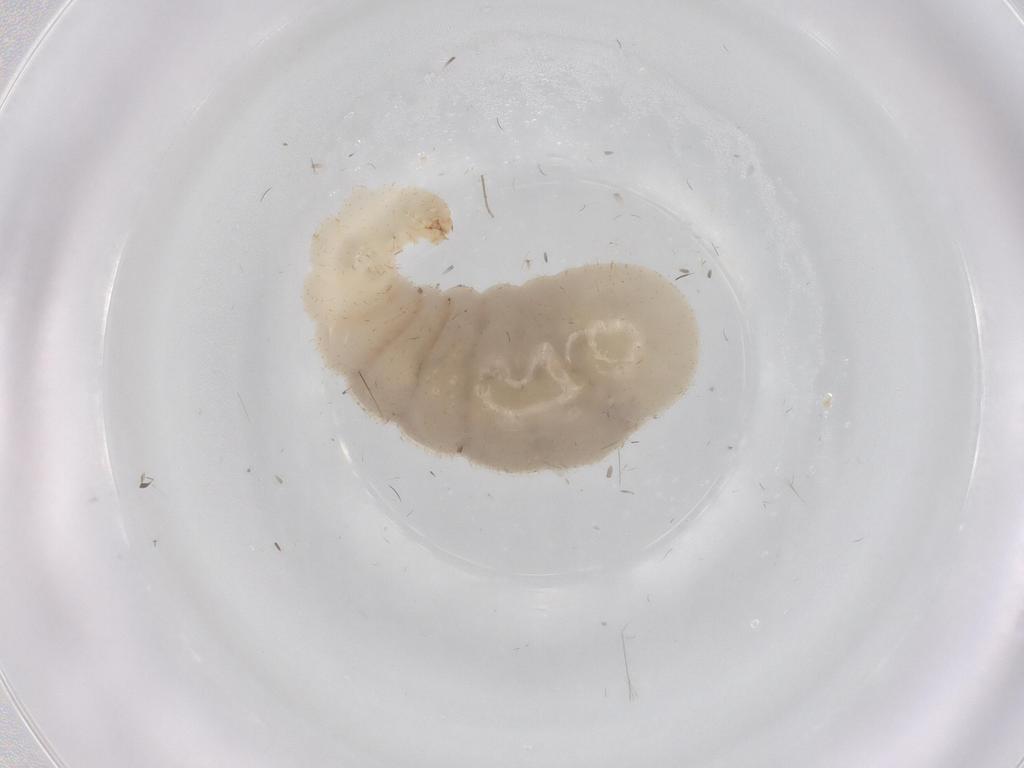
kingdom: Animalia
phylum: Arthropoda
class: Insecta
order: Hymenoptera
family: Formicidae
